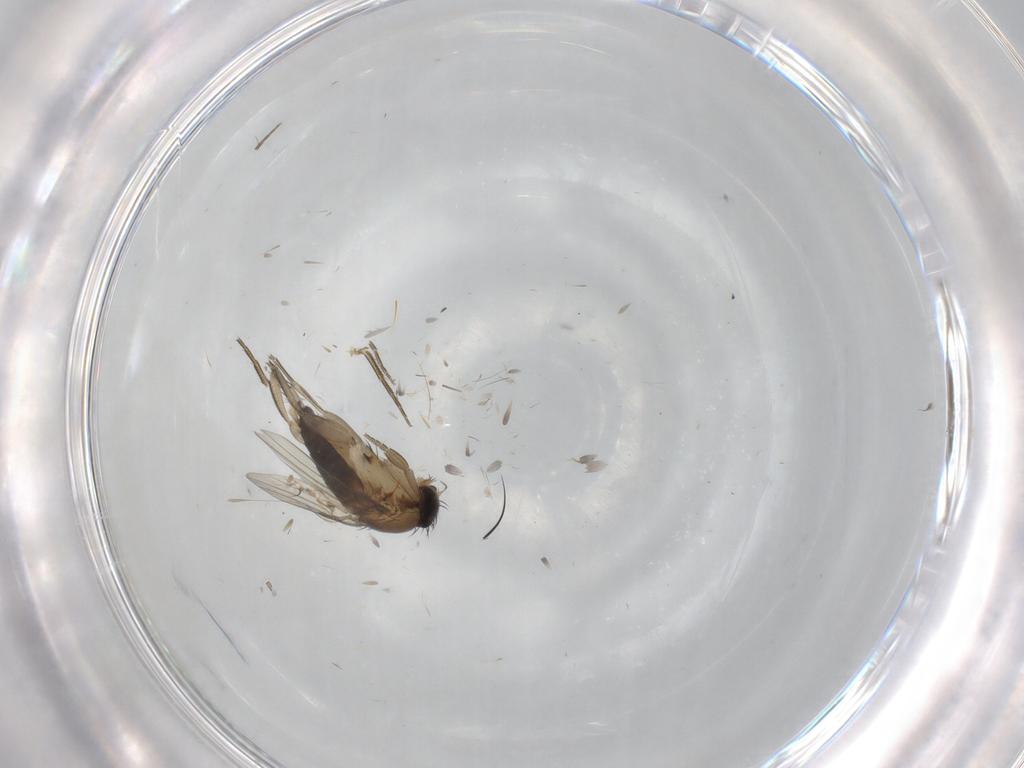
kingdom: Animalia
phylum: Arthropoda
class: Insecta
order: Diptera
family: Phoridae
